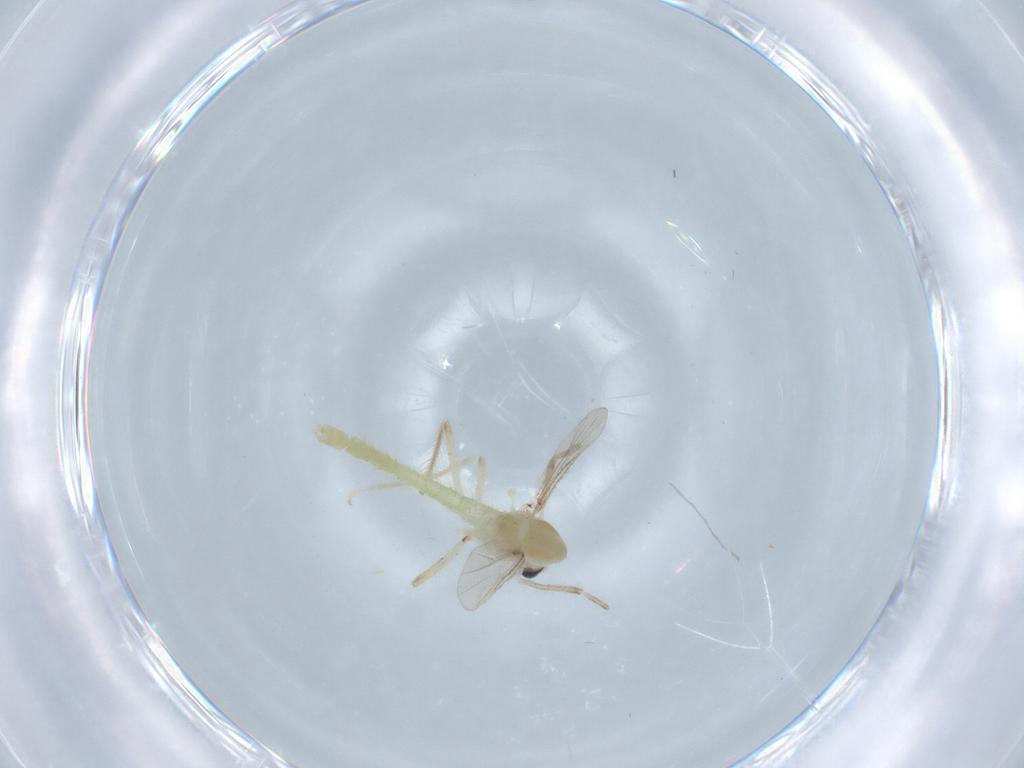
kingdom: Animalia
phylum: Arthropoda
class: Insecta
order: Diptera
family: Chironomidae
